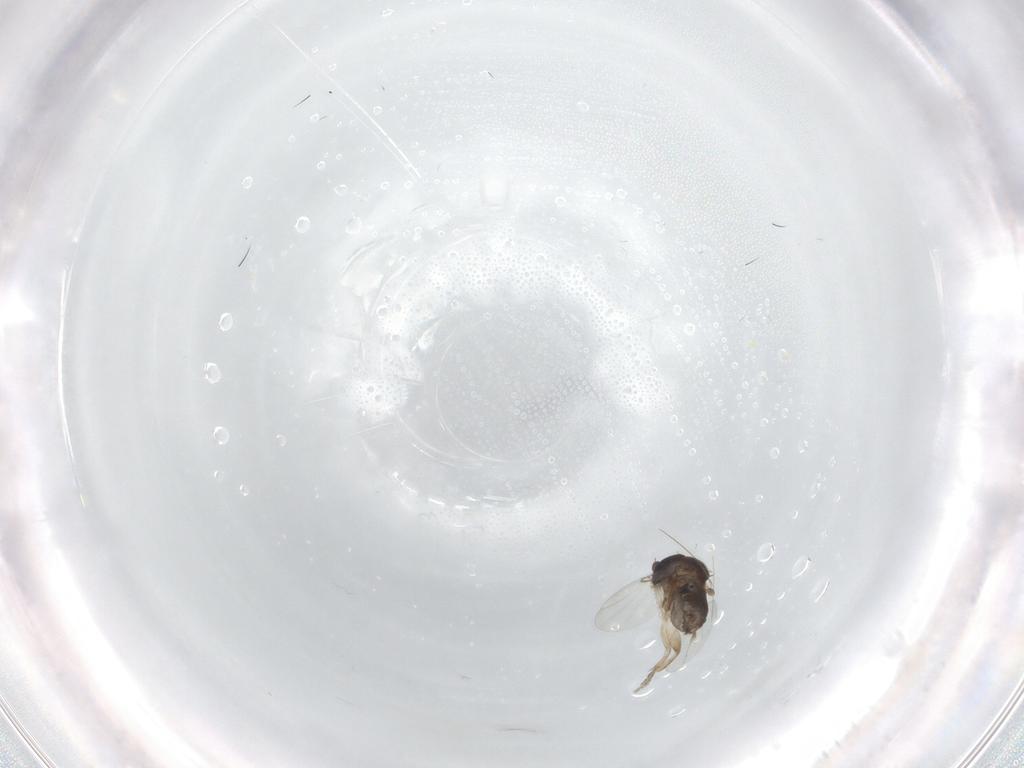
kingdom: Animalia
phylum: Arthropoda
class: Insecta
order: Diptera
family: Phoridae
